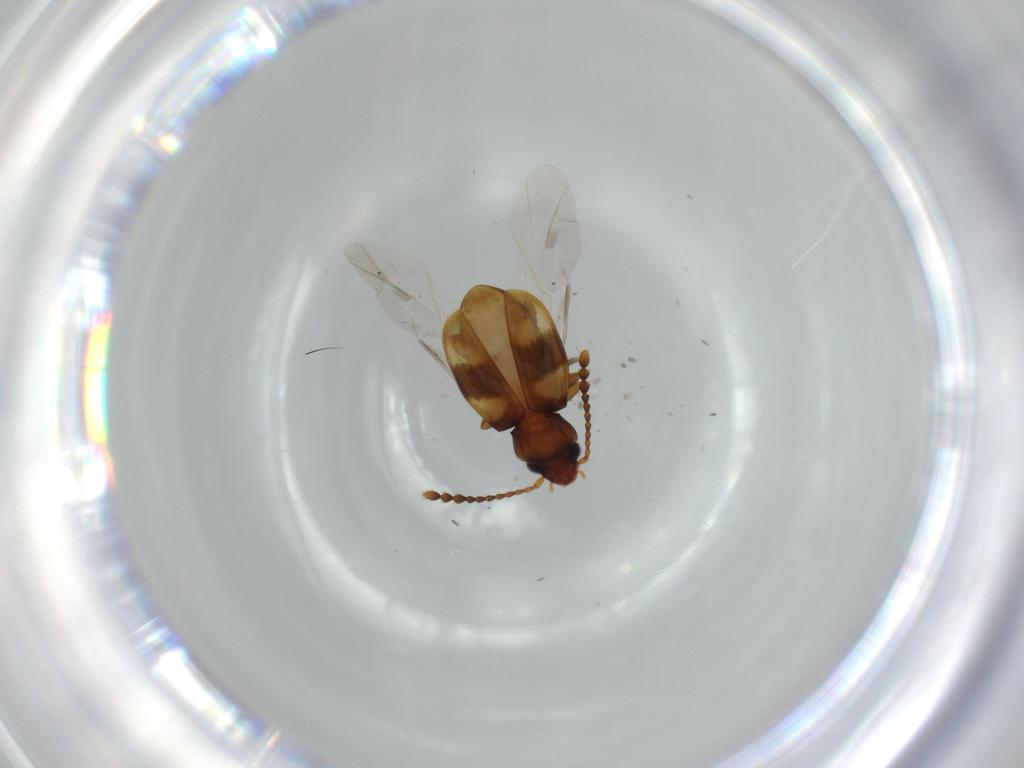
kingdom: Animalia
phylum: Arthropoda
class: Insecta
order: Coleoptera
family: Laemophloeidae
